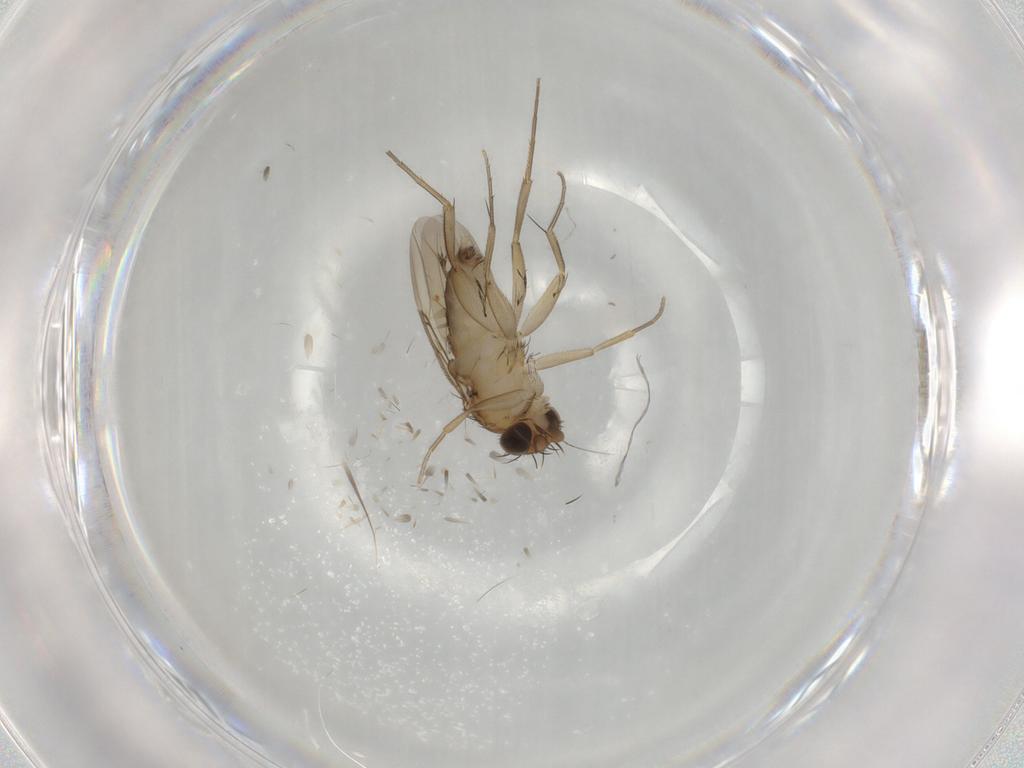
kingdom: Animalia
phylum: Arthropoda
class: Insecta
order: Diptera
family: Phoridae
